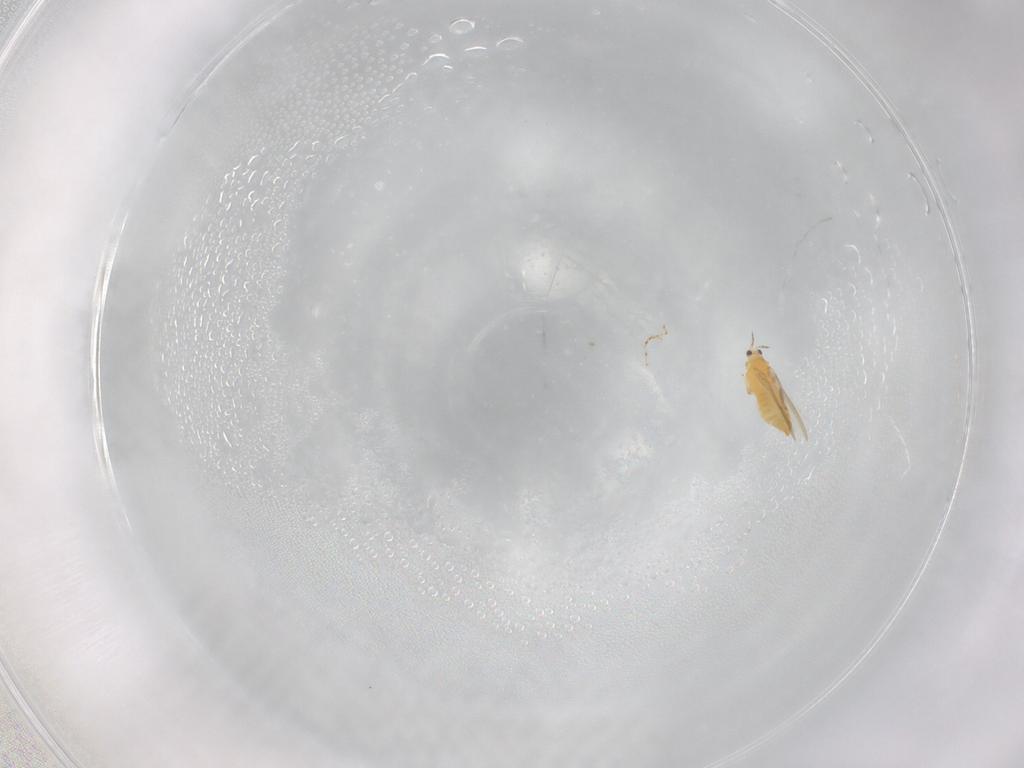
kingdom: Animalia
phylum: Arthropoda
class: Insecta
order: Thysanoptera
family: Thripidae
